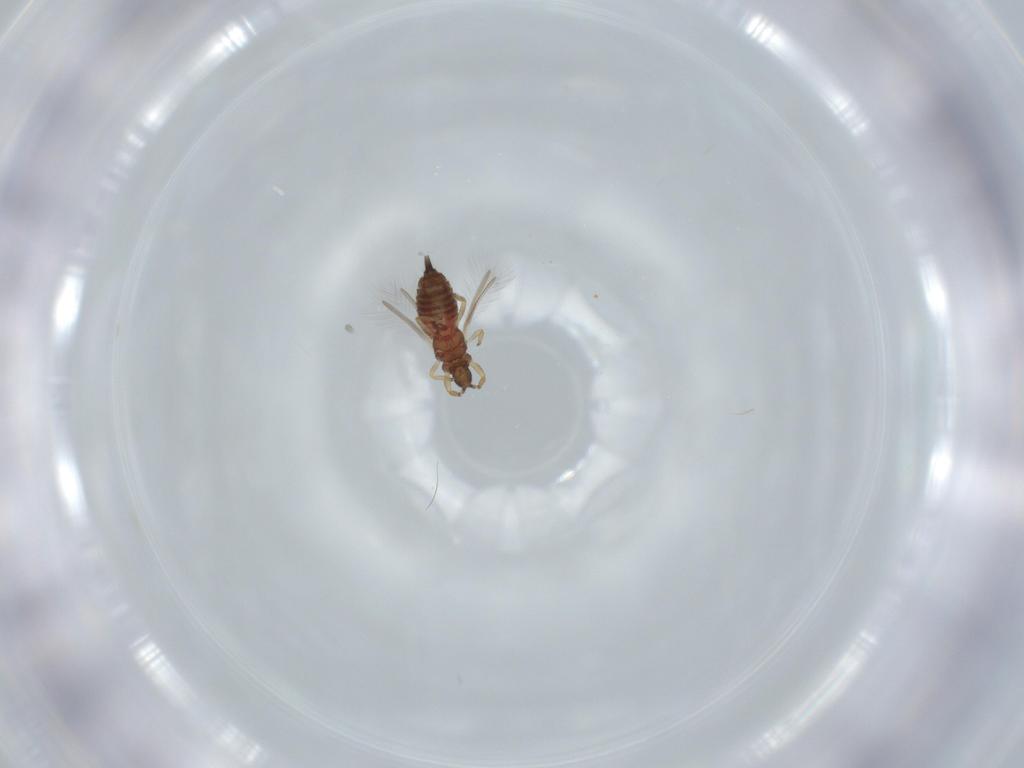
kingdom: Animalia
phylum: Arthropoda
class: Insecta
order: Thysanoptera
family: Phlaeothripidae
